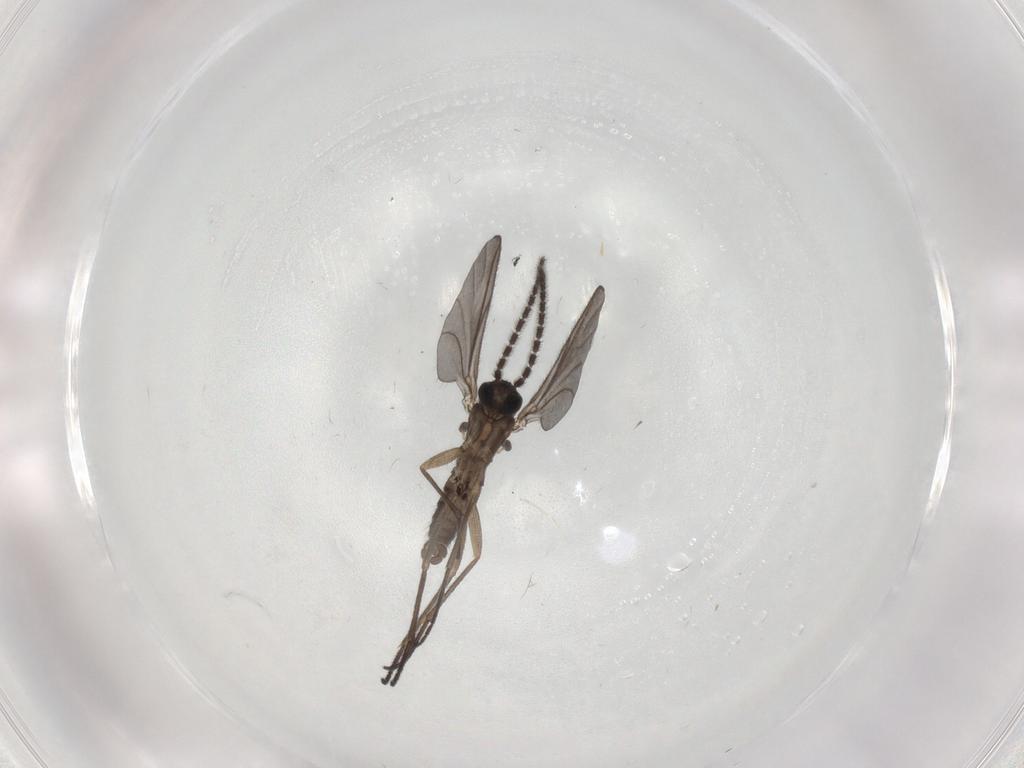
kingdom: Animalia
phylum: Arthropoda
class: Insecta
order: Diptera
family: Sciaridae
